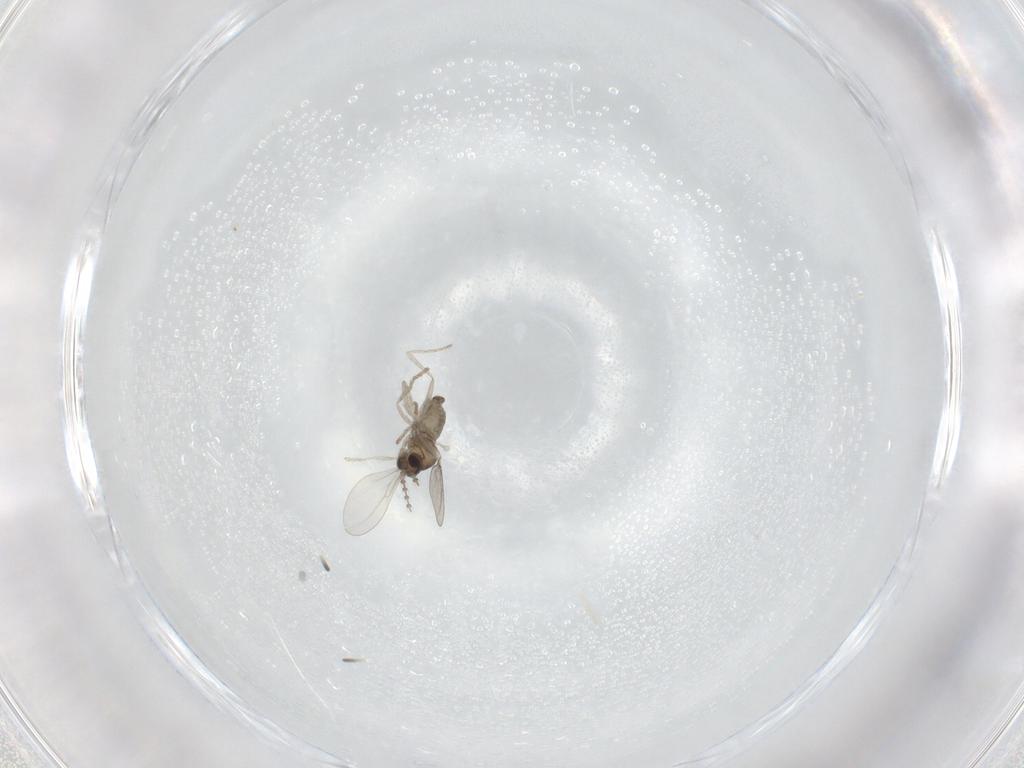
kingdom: Animalia
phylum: Arthropoda
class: Insecta
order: Diptera
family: Cecidomyiidae
